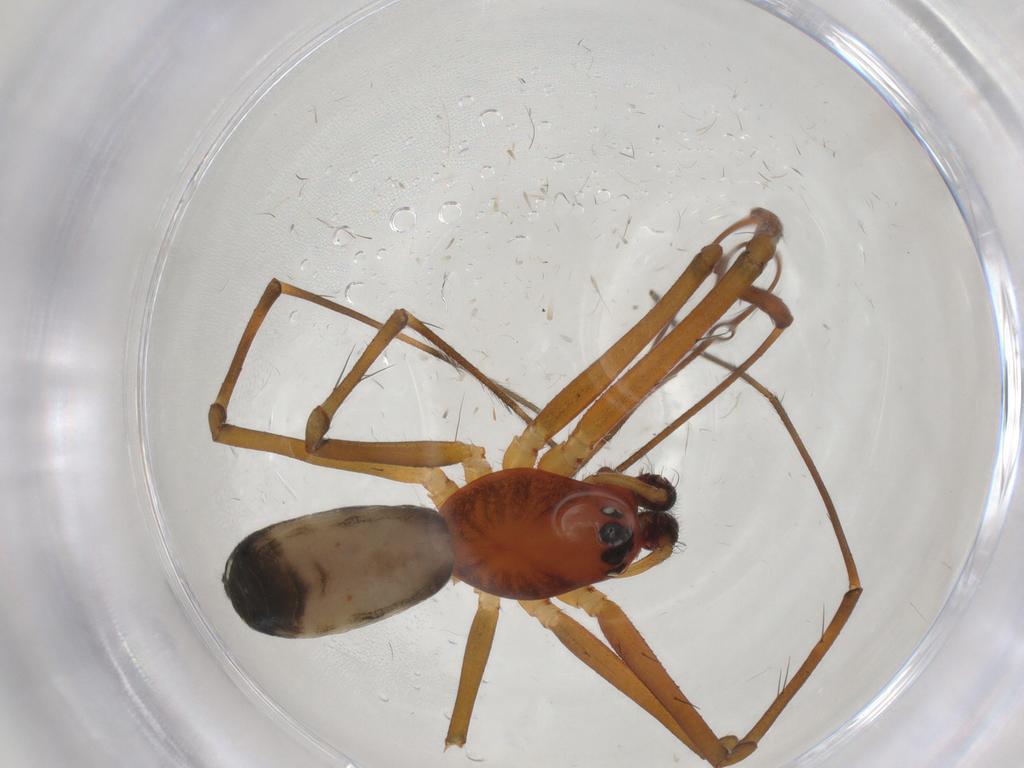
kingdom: Animalia
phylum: Arthropoda
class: Arachnida
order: Araneae
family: Linyphiidae
